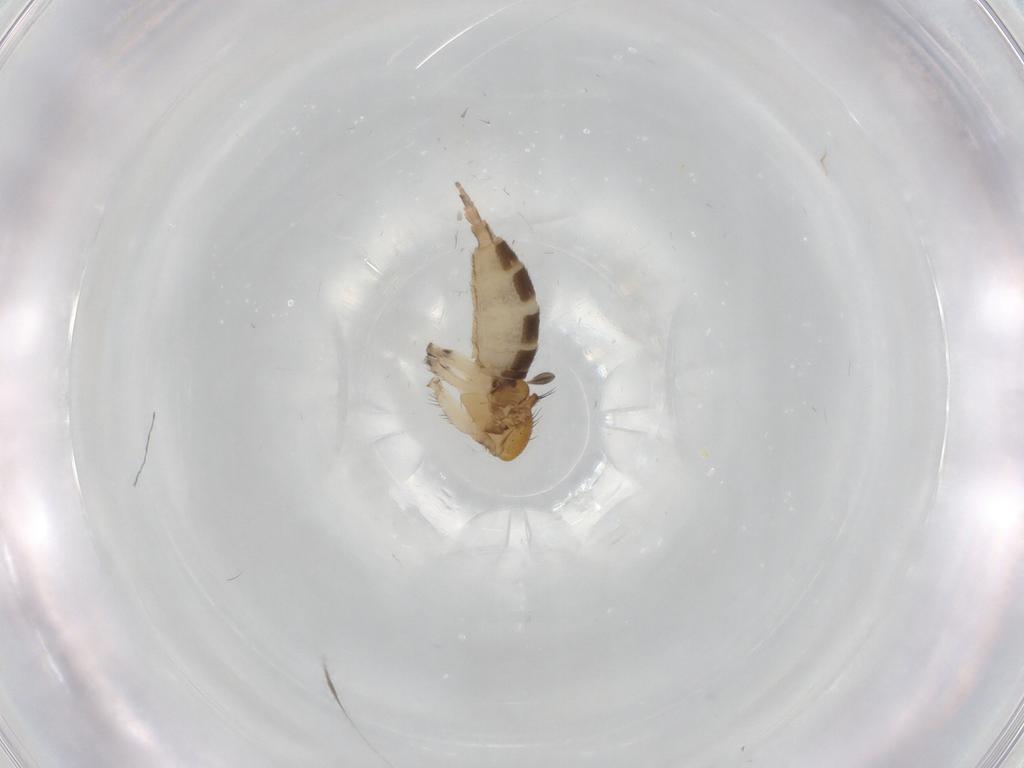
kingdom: Animalia
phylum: Arthropoda
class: Insecta
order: Diptera
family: Sciaridae
